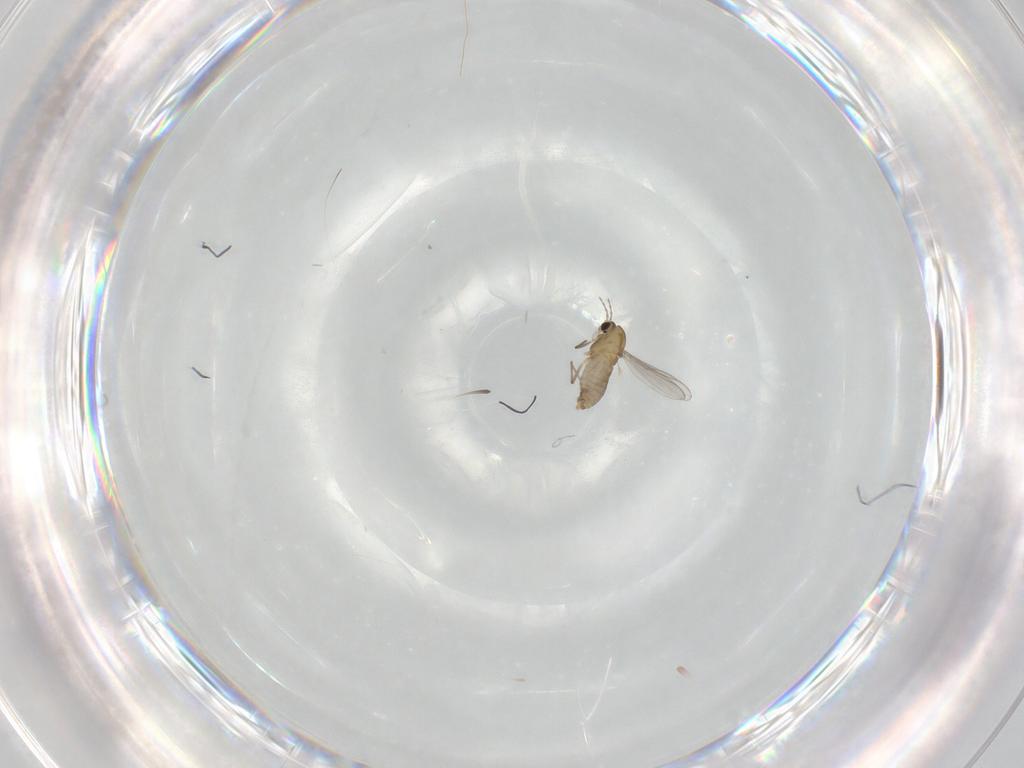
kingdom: Animalia
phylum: Arthropoda
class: Insecta
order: Diptera
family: Chironomidae
